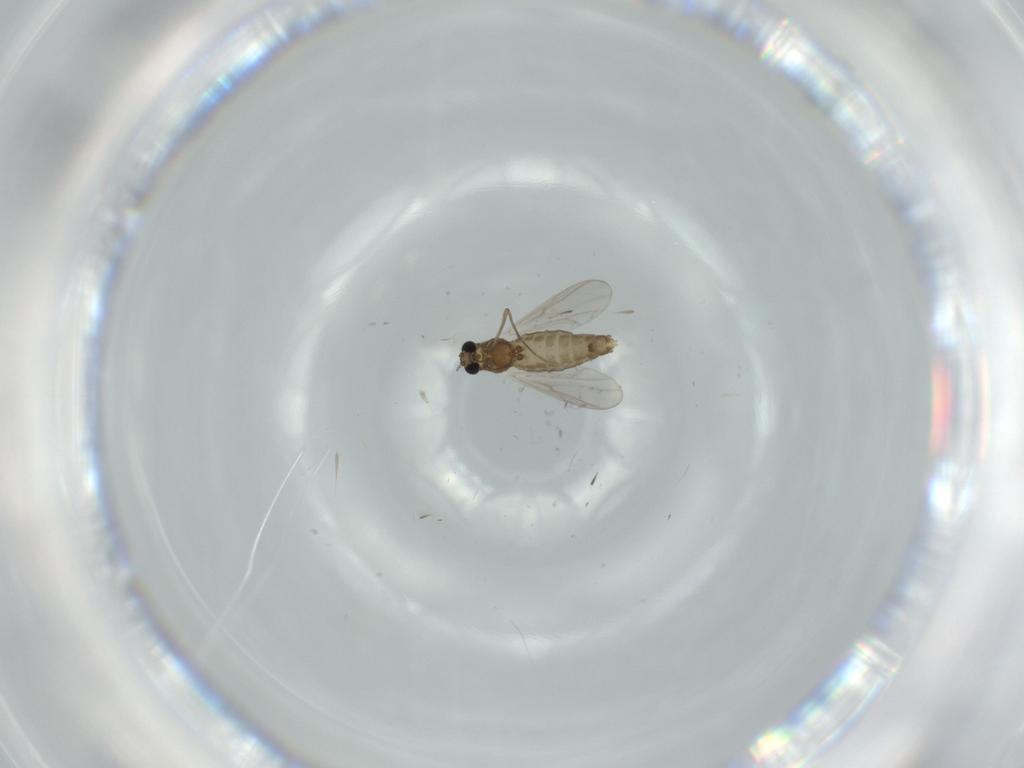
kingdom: Animalia
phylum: Arthropoda
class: Insecta
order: Diptera
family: Chironomidae
